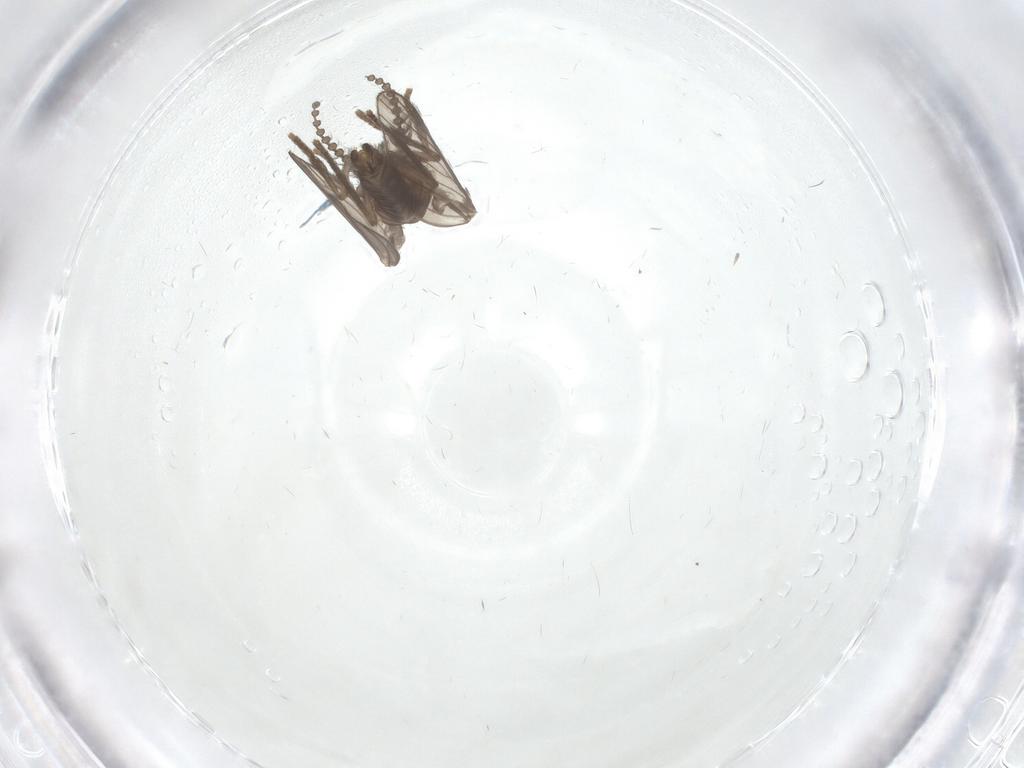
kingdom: Animalia
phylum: Arthropoda
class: Insecta
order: Diptera
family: Psychodidae
